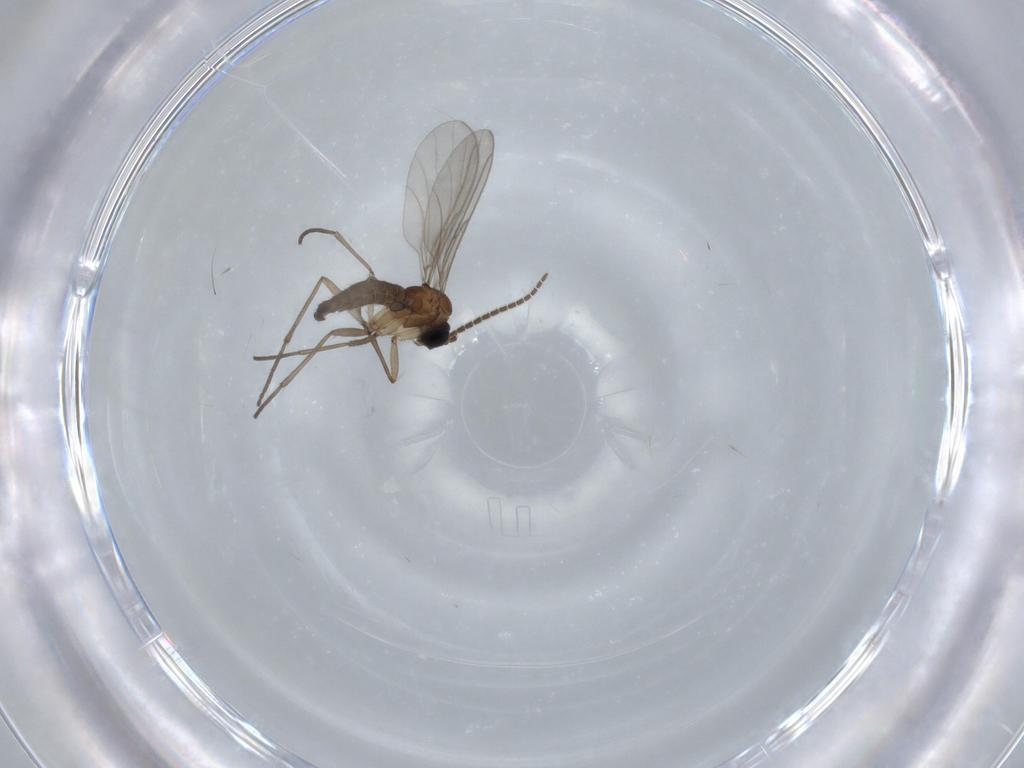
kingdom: Animalia
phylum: Arthropoda
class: Insecta
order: Diptera
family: Sciaridae
